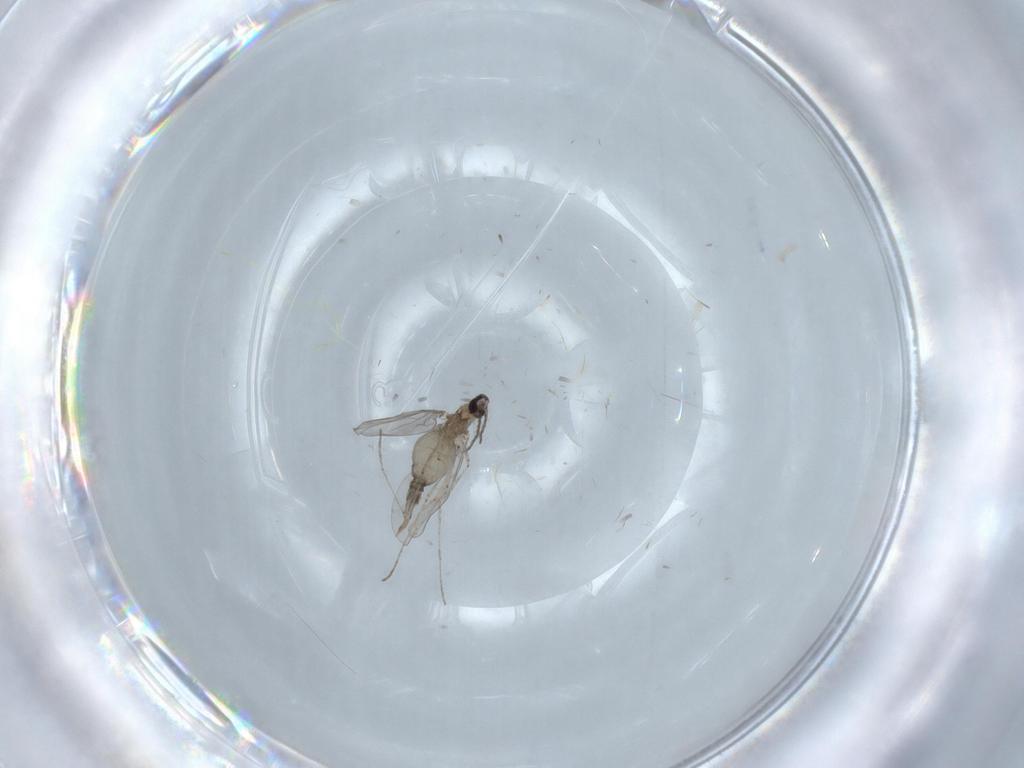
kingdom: Animalia
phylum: Arthropoda
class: Insecta
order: Diptera
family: Cecidomyiidae
